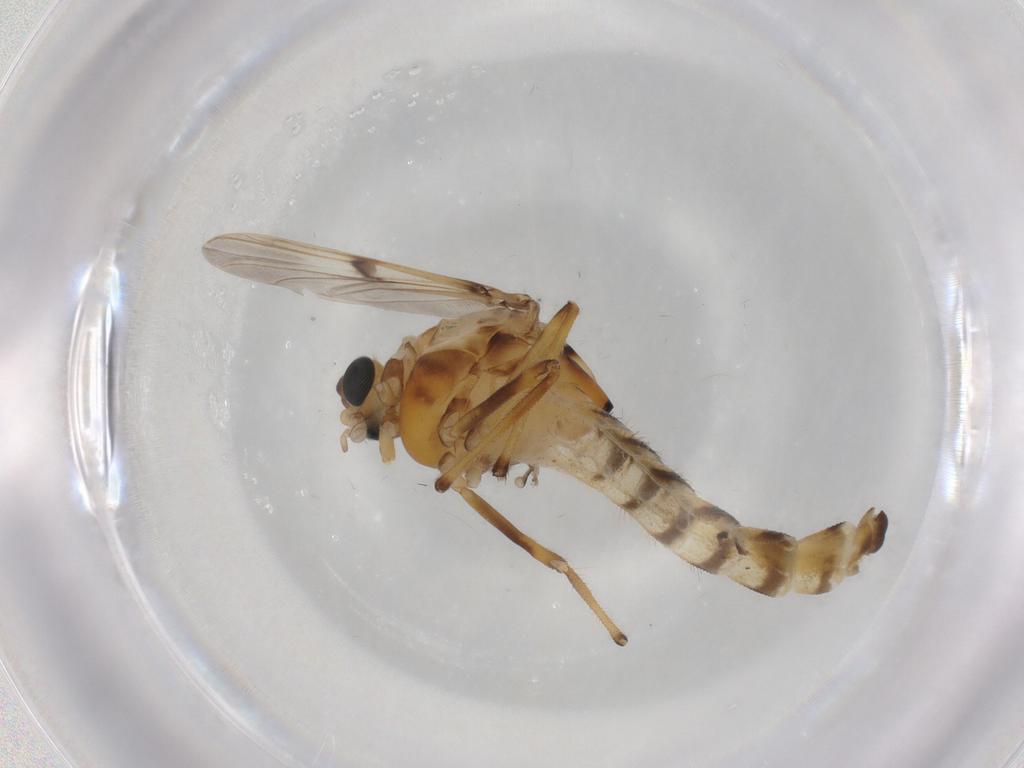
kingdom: Animalia
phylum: Arthropoda
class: Insecta
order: Diptera
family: Chironomidae
